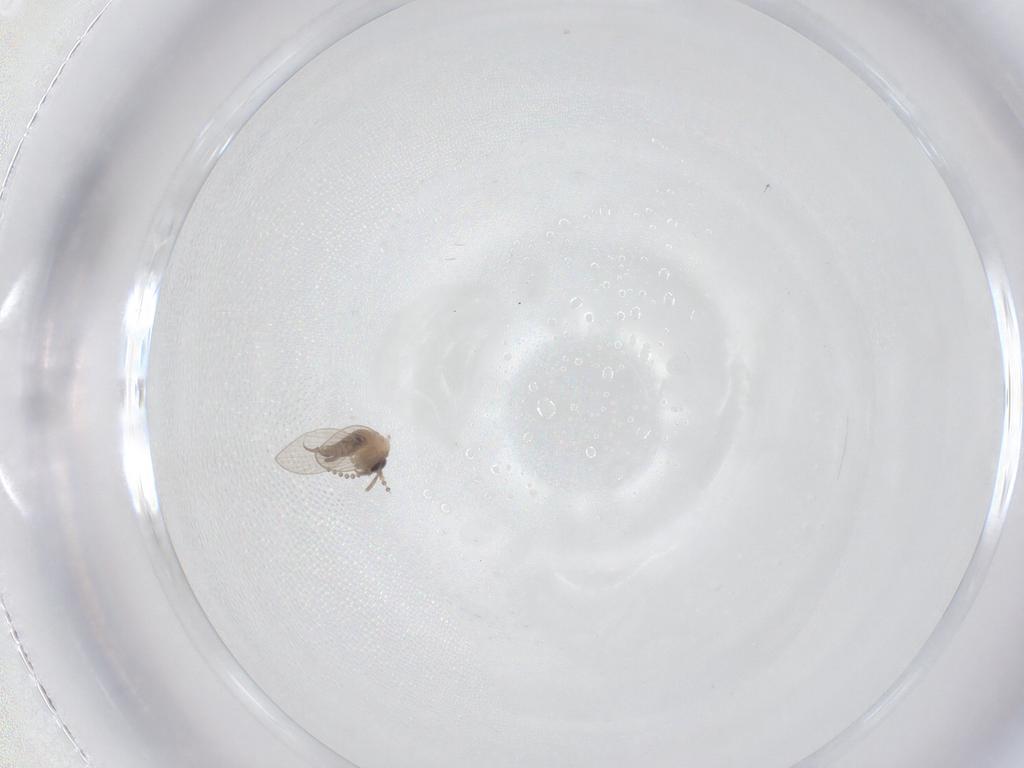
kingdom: Animalia
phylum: Arthropoda
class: Insecta
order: Diptera
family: Psychodidae
